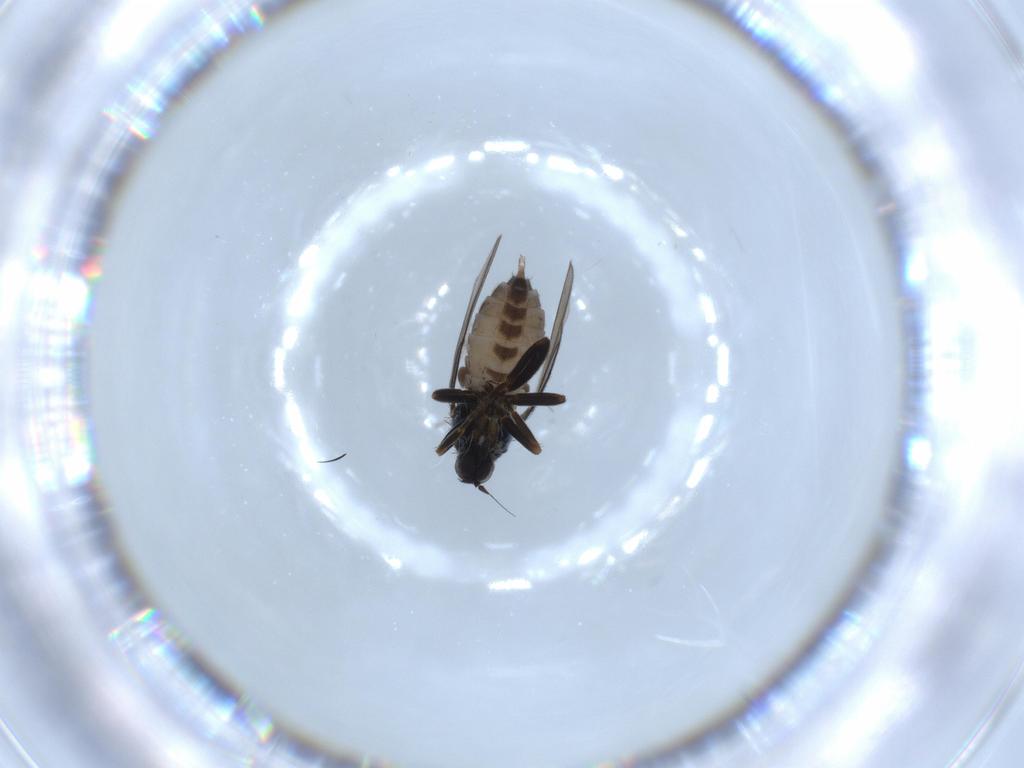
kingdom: Animalia
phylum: Arthropoda
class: Insecta
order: Diptera
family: Hybotidae
